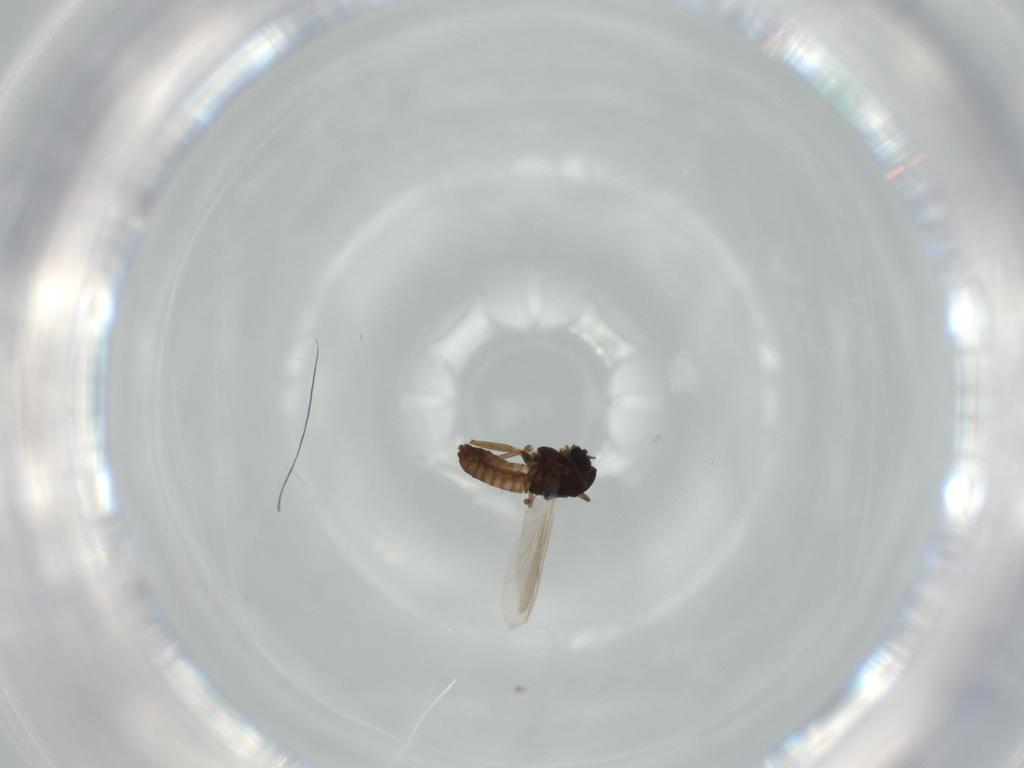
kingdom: Animalia
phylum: Arthropoda
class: Insecta
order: Diptera
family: Chironomidae
